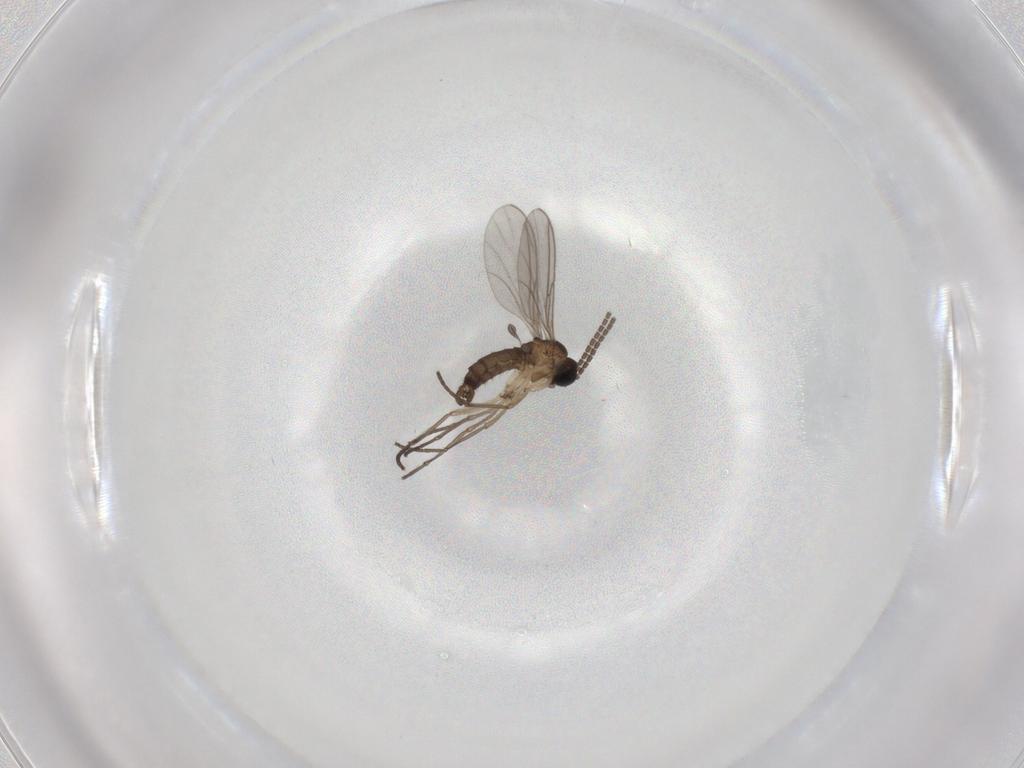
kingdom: Animalia
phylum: Arthropoda
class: Insecta
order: Diptera
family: Sciaridae
